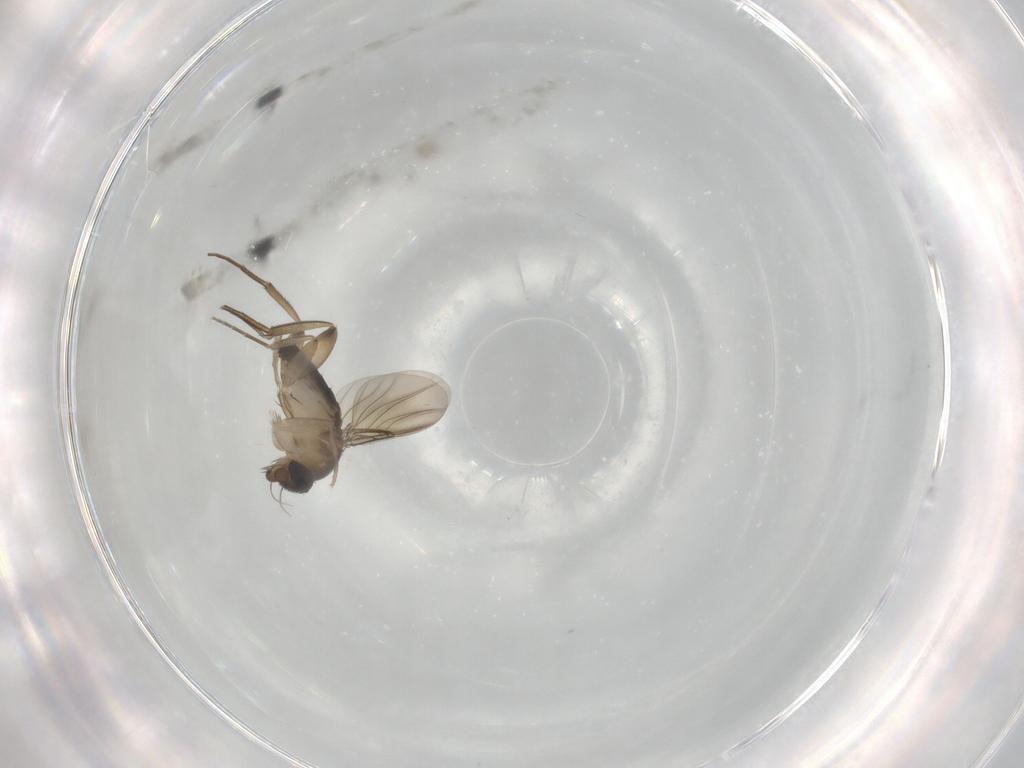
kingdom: Animalia
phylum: Arthropoda
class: Insecta
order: Diptera
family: Phoridae
